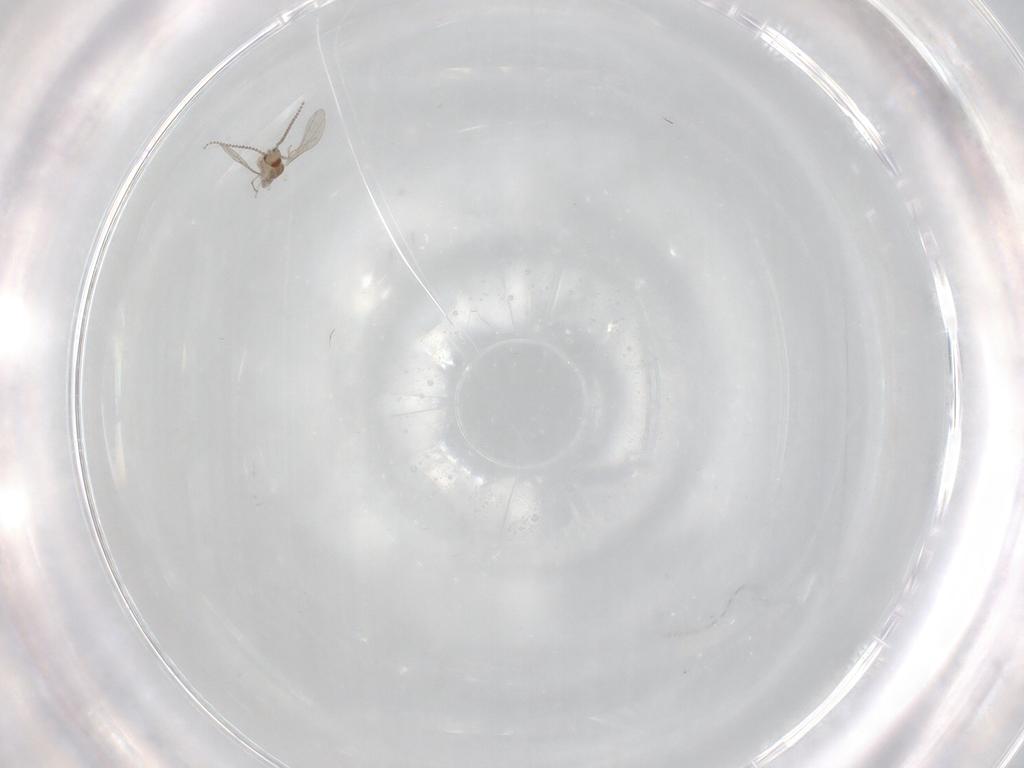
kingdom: Animalia
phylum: Arthropoda
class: Insecta
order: Diptera
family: Cecidomyiidae
